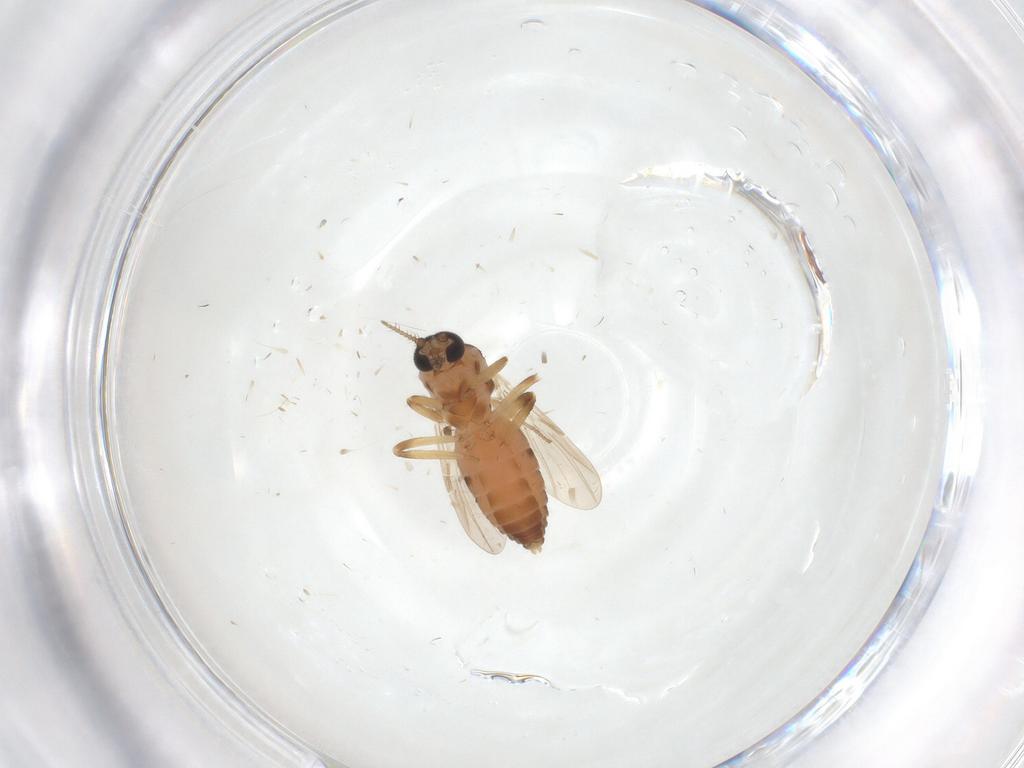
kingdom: Animalia
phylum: Arthropoda
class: Insecta
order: Diptera
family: Ceratopogonidae
